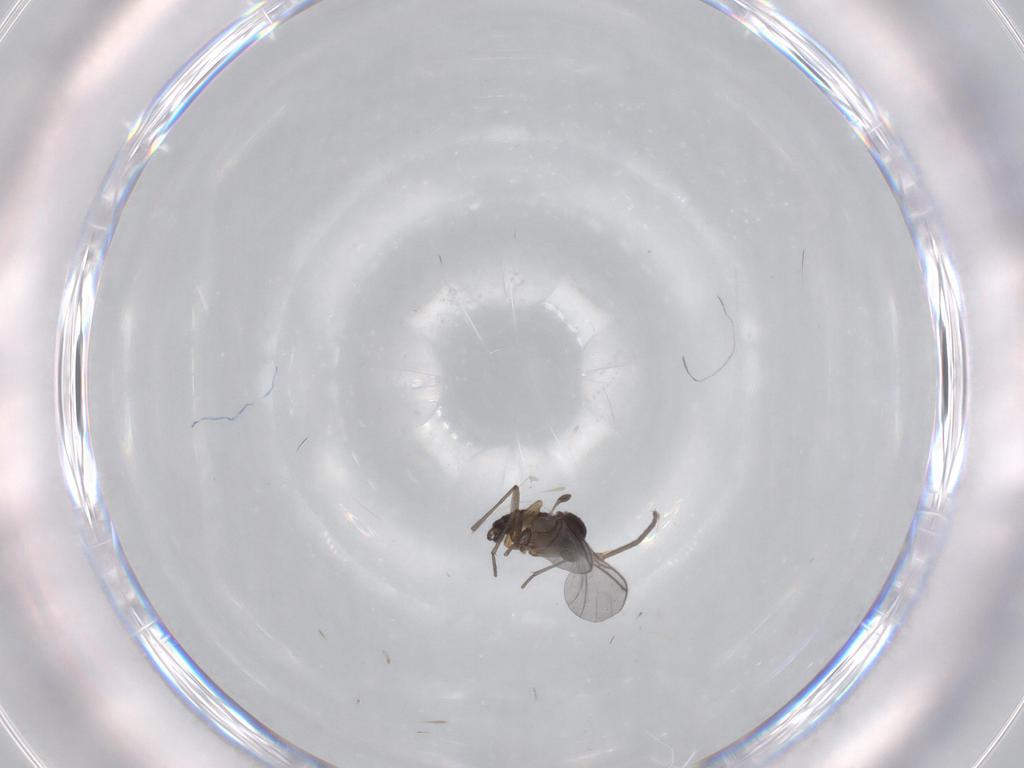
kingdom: Animalia
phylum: Arthropoda
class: Insecta
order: Diptera
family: Sciaridae
